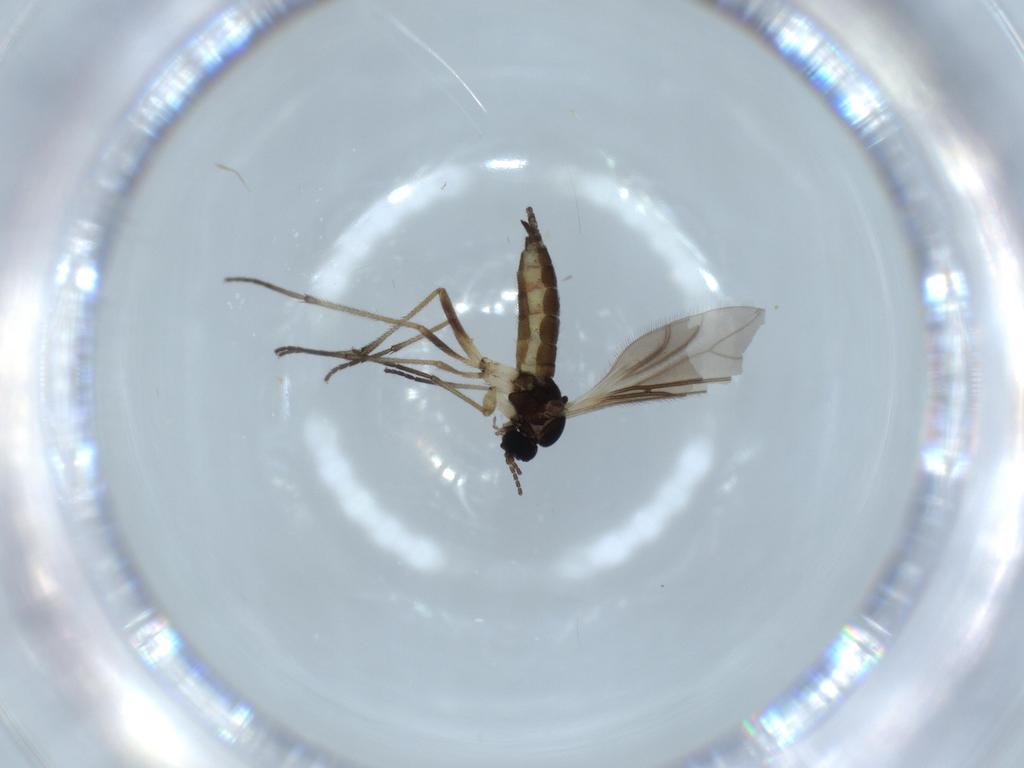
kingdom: Animalia
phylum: Arthropoda
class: Insecta
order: Diptera
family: Sciaridae
